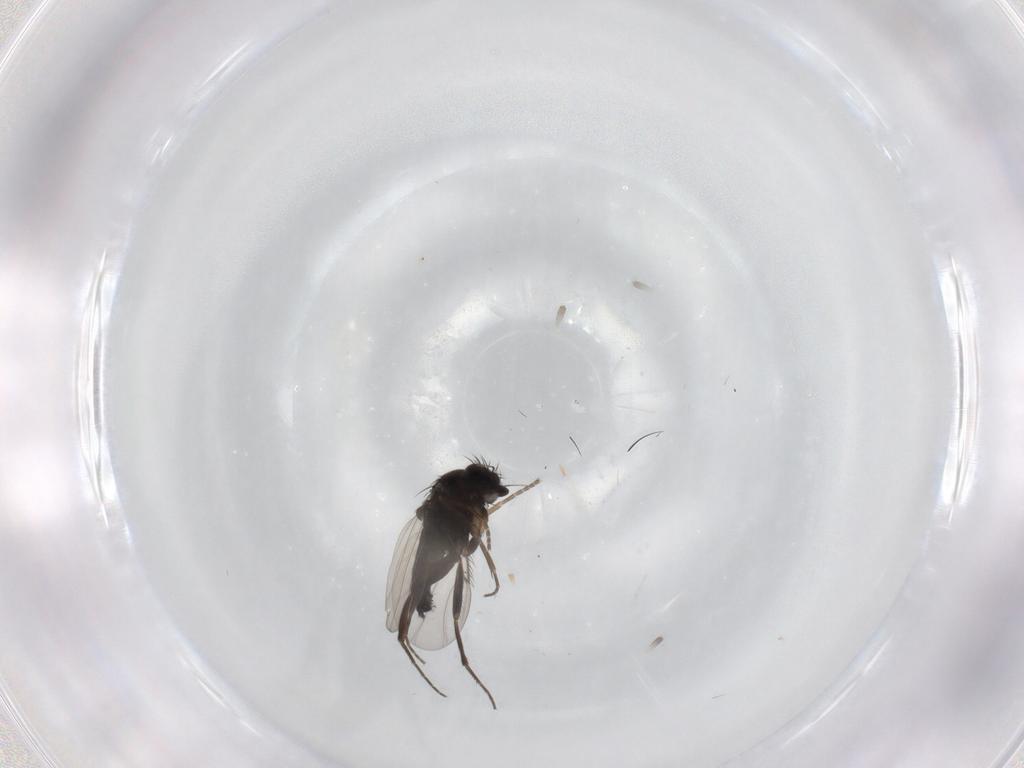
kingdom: Animalia
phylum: Arthropoda
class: Insecta
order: Diptera
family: Phoridae
